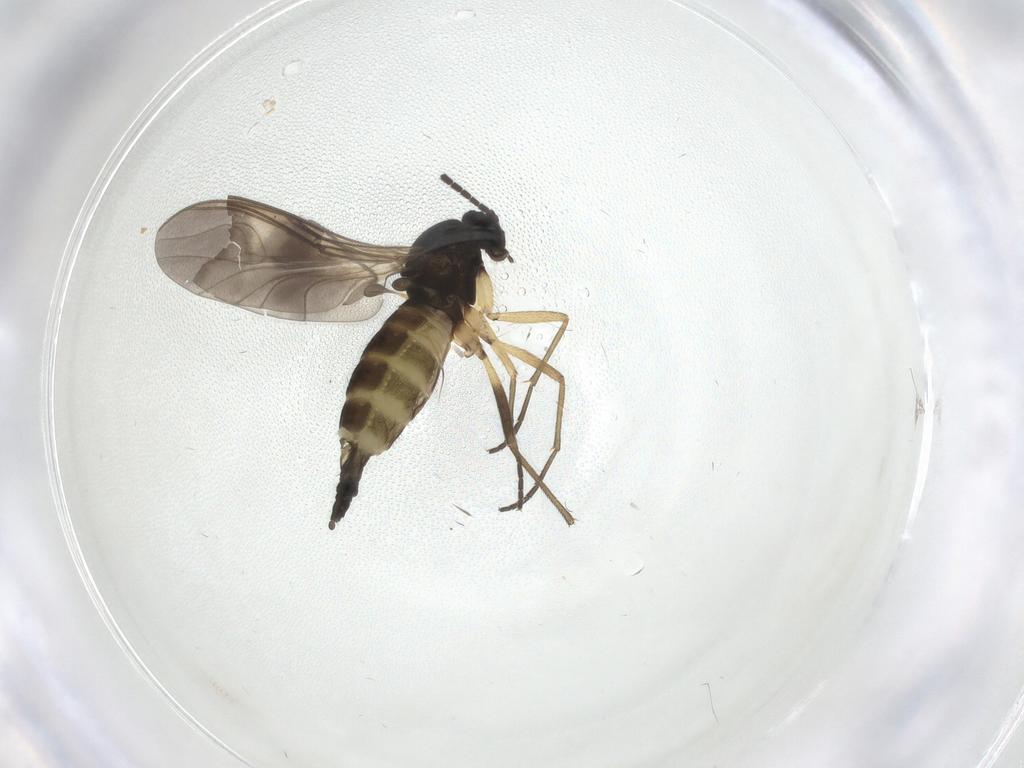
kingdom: Animalia
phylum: Arthropoda
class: Insecta
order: Diptera
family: Sciaridae
